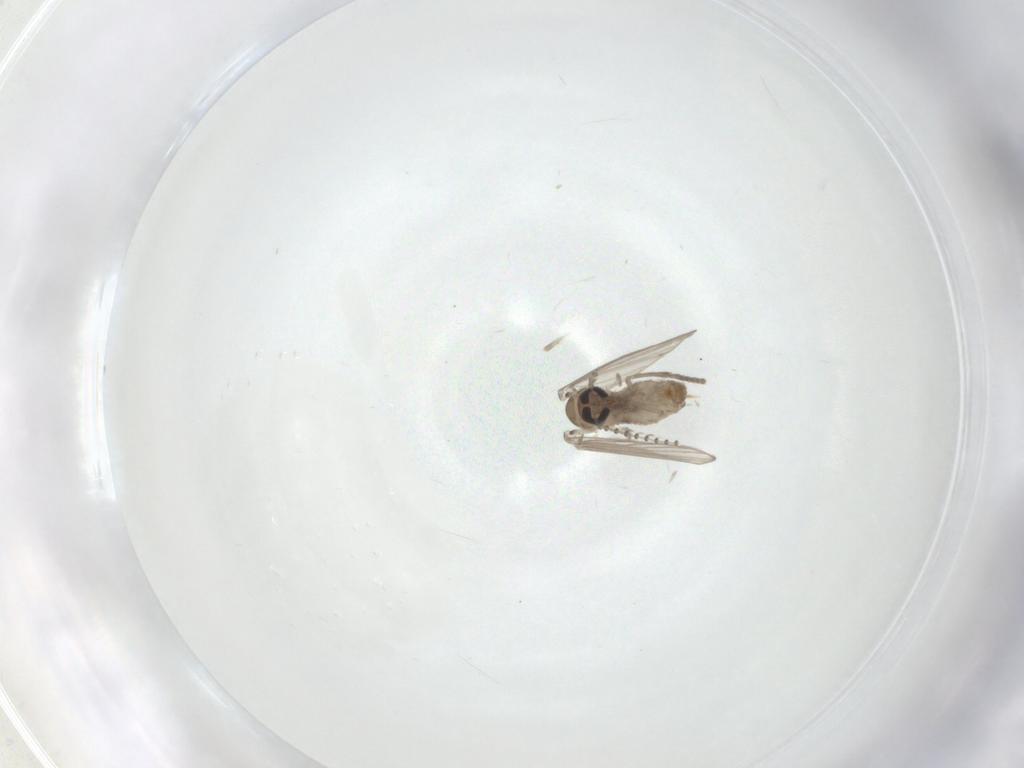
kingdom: Animalia
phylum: Arthropoda
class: Insecta
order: Diptera
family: Psychodidae
